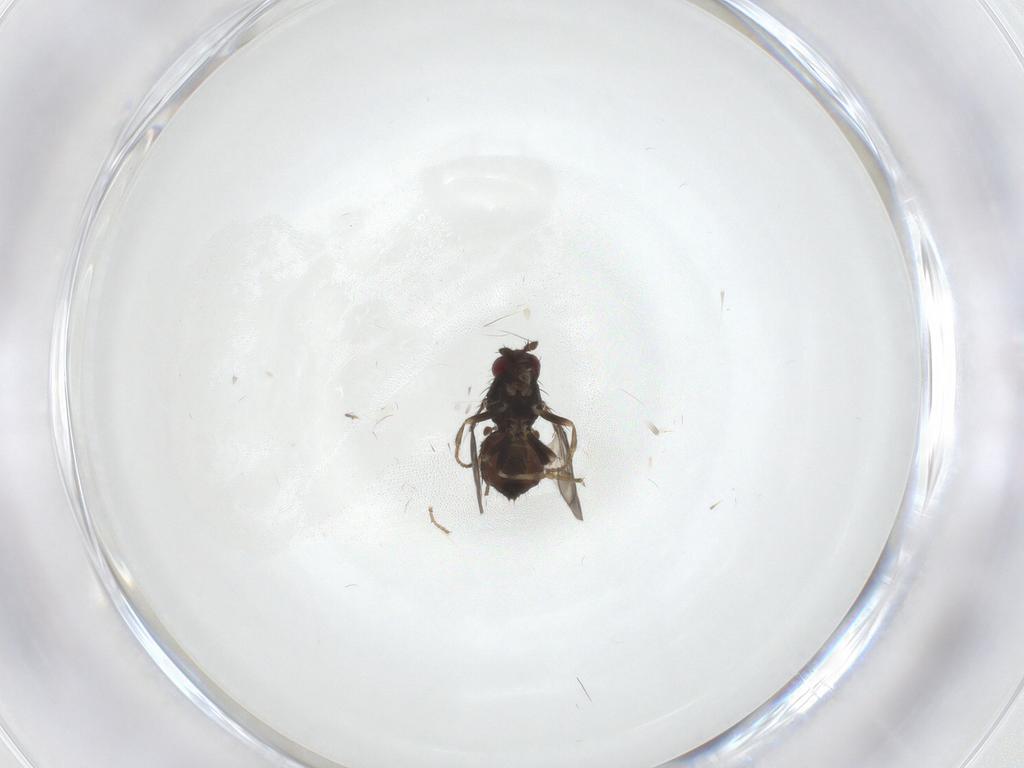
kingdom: Animalia
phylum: Arthropoda
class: Insecta
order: Diptera
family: Sphaeroceridae
